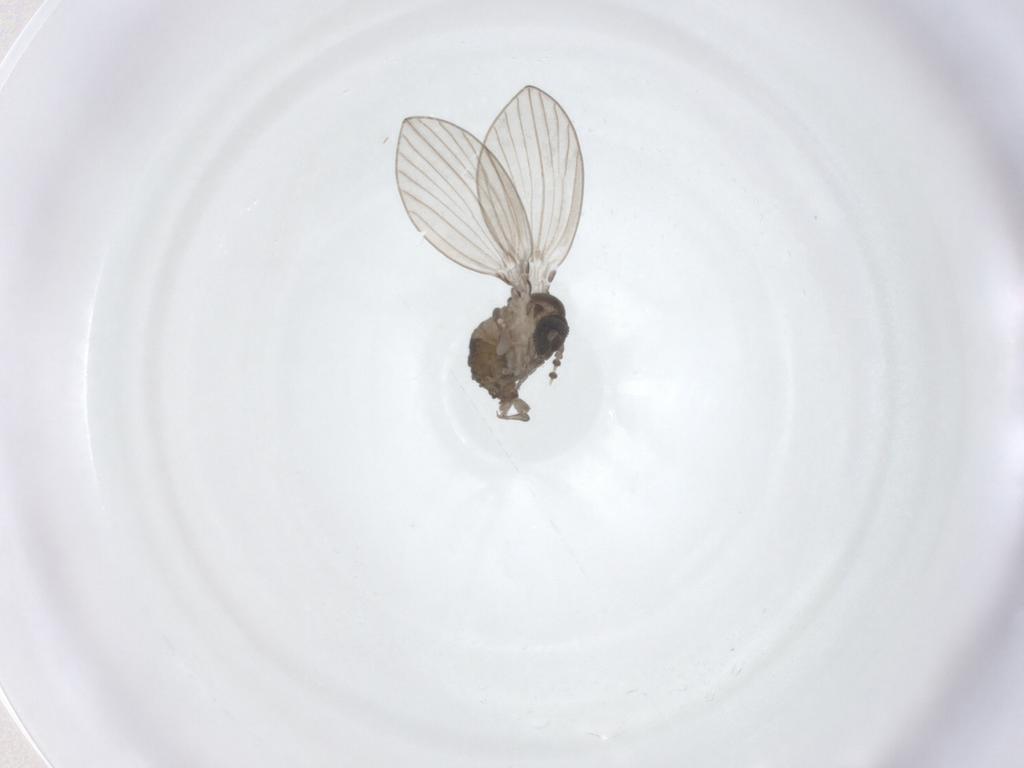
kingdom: Animalia
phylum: Arthropoda
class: Insecta
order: Diptera
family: Psychodidae
